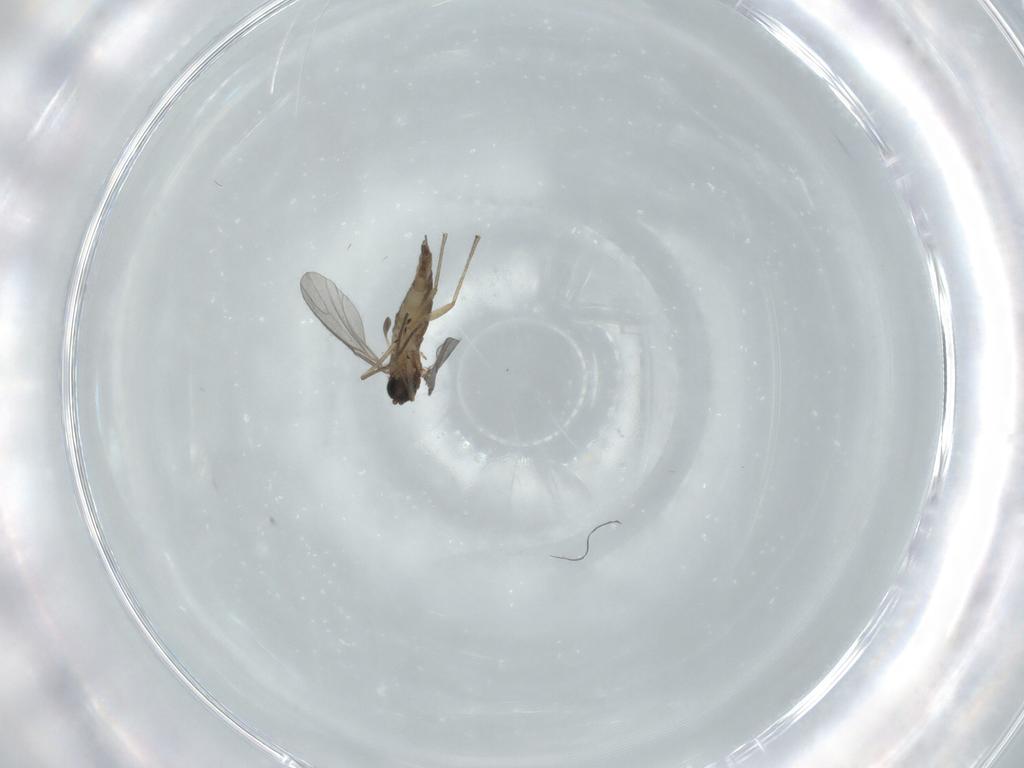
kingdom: Animalia
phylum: Arthropoda
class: Insecta
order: Diptera
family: Sciaridae
